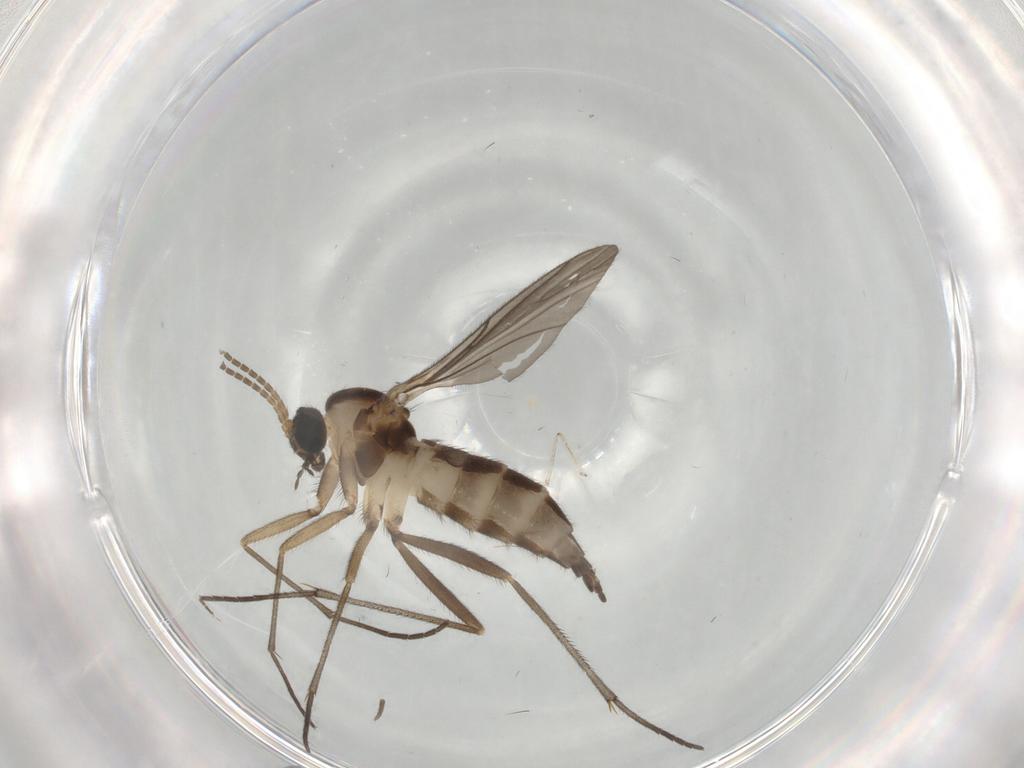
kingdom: Animalia
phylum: Arthropoda
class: Insecta
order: Diptera
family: Sciaridae
